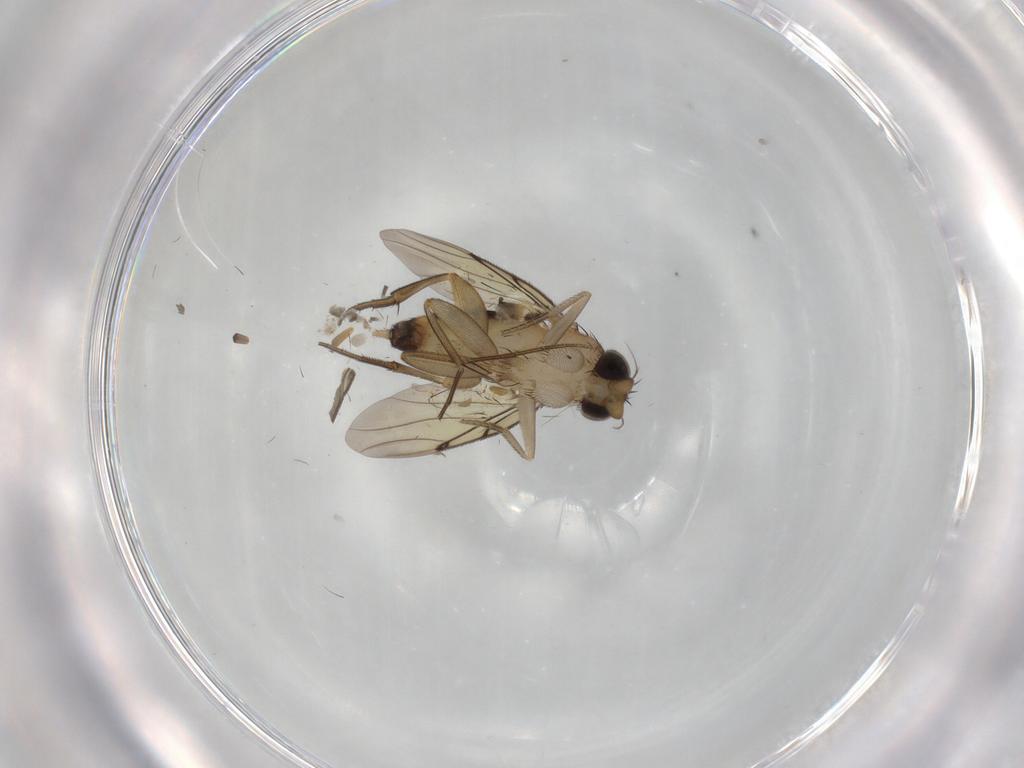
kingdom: Animalia
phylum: Arthropoda
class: Insecta
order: Diptera
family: Cecidomyiidae
